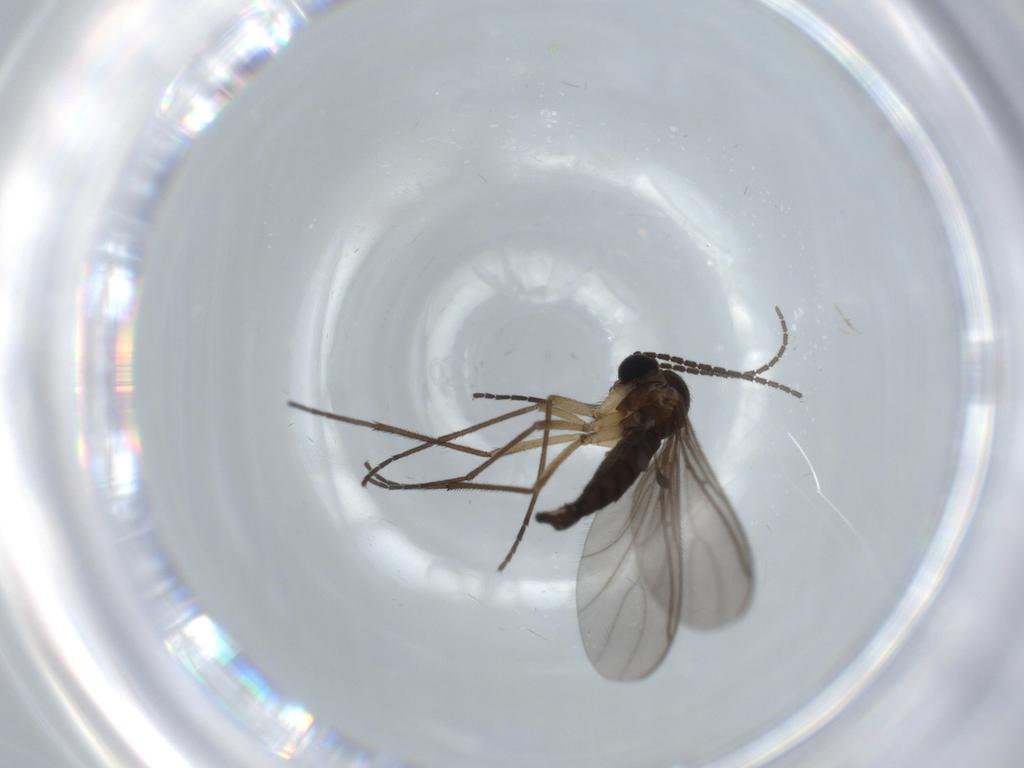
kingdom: Animalia
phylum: Arthropoda
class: Insecta
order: Diptera
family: Sciaridae
